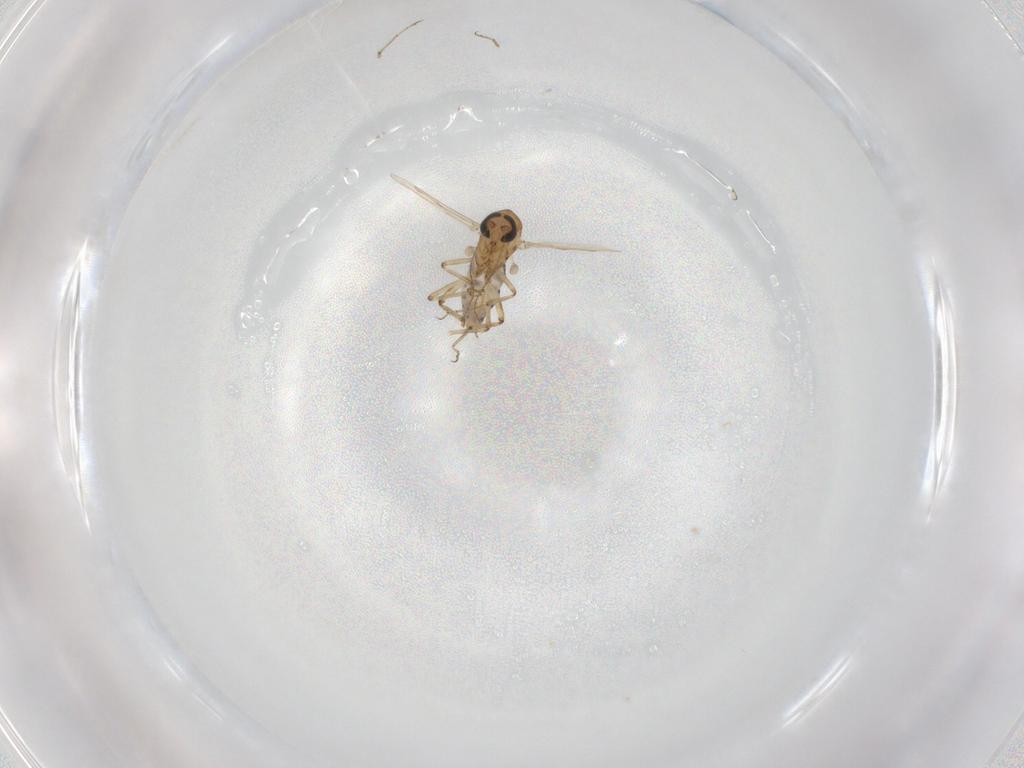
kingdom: Animalia
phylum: Arthropoda
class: Insecta
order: Diptera
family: Ceratopogonidae
